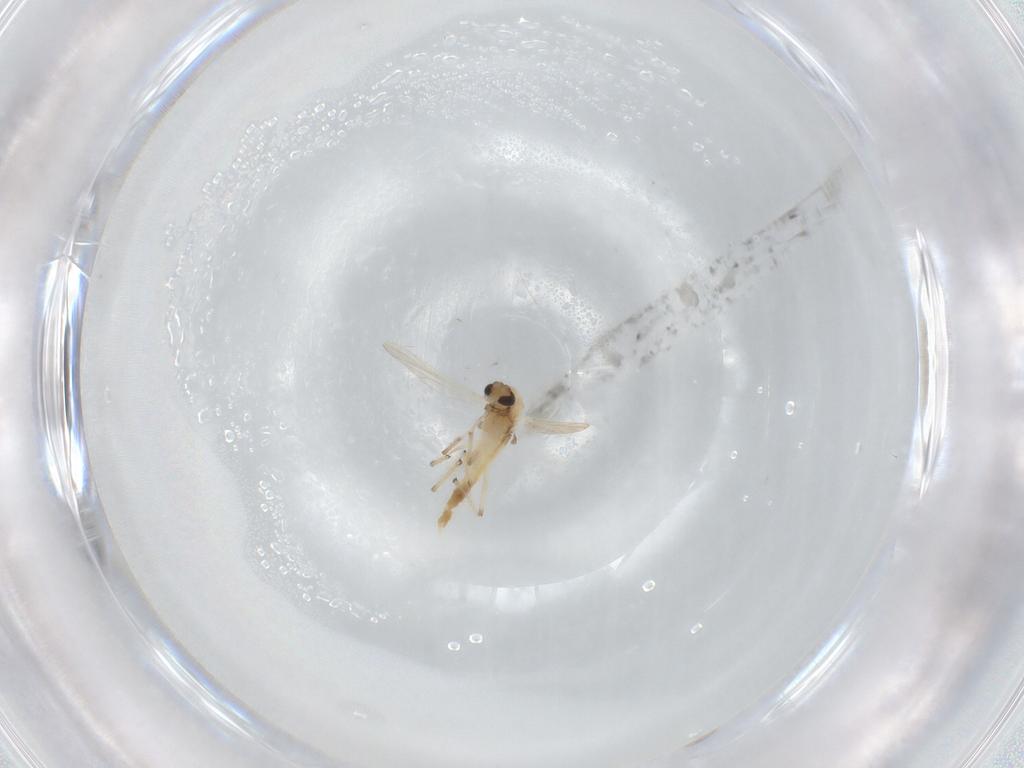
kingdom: Animalia
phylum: Arthropoda
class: Insecta
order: Diptera
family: Chironomidae
